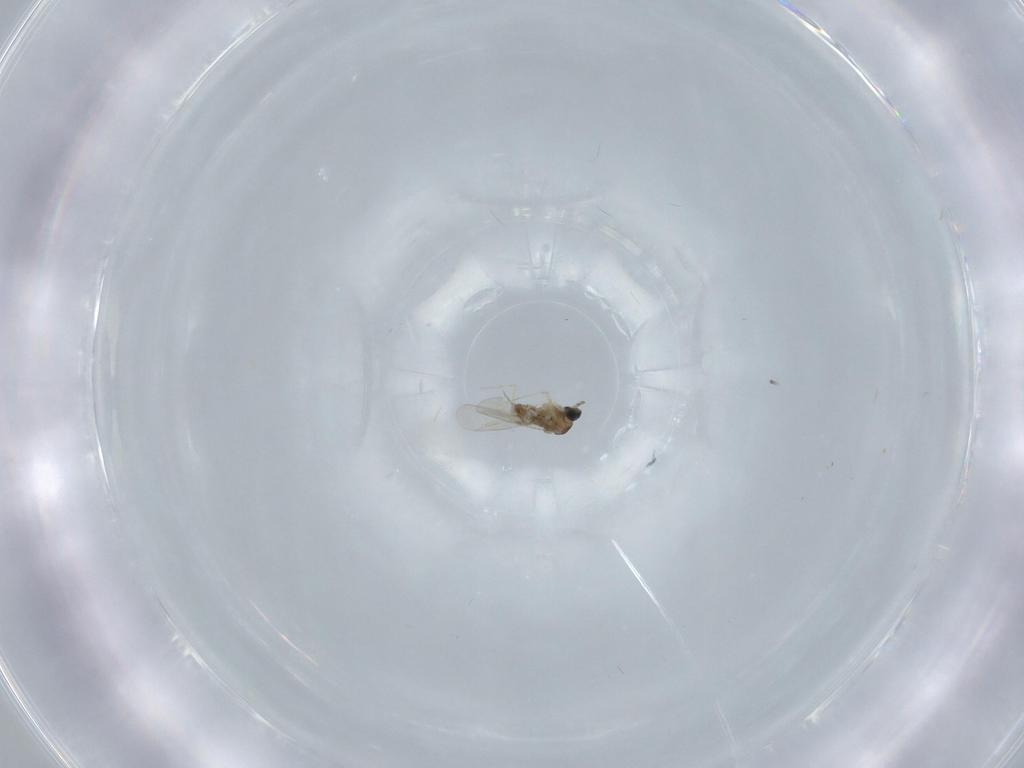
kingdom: Animalia
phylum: Arthropoda
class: Insecta
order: Diptera
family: Cecidomyiidae
